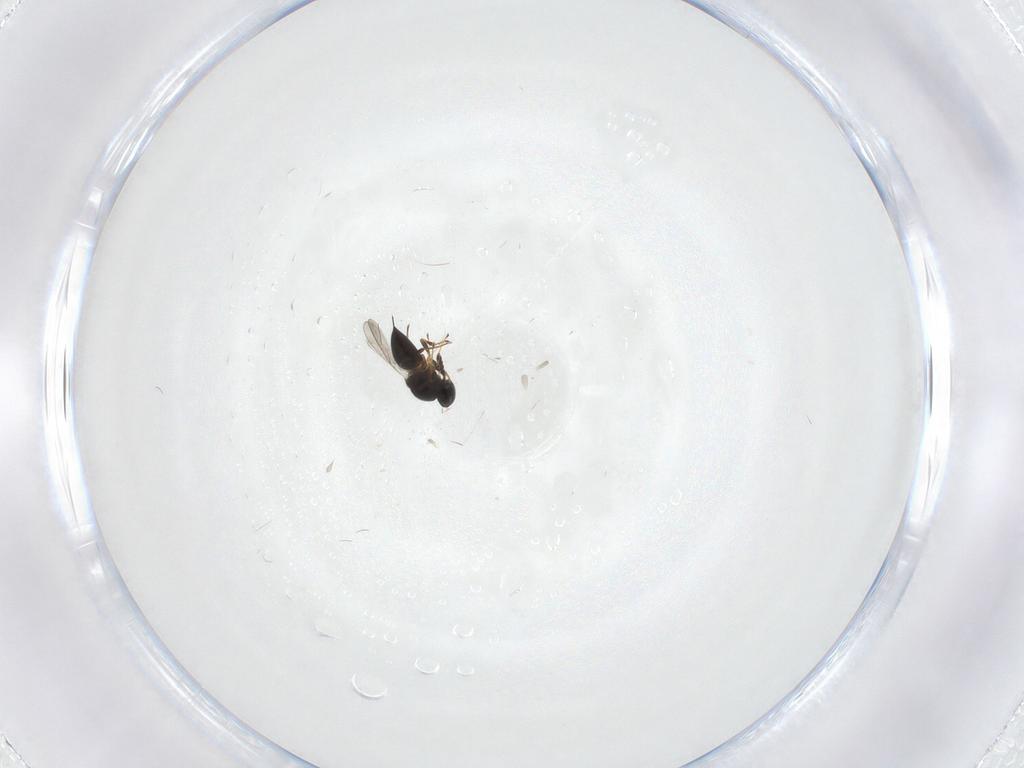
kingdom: Animalia
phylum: Arthropoda
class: Insecta
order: Hymenoptera
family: Platygastridae
